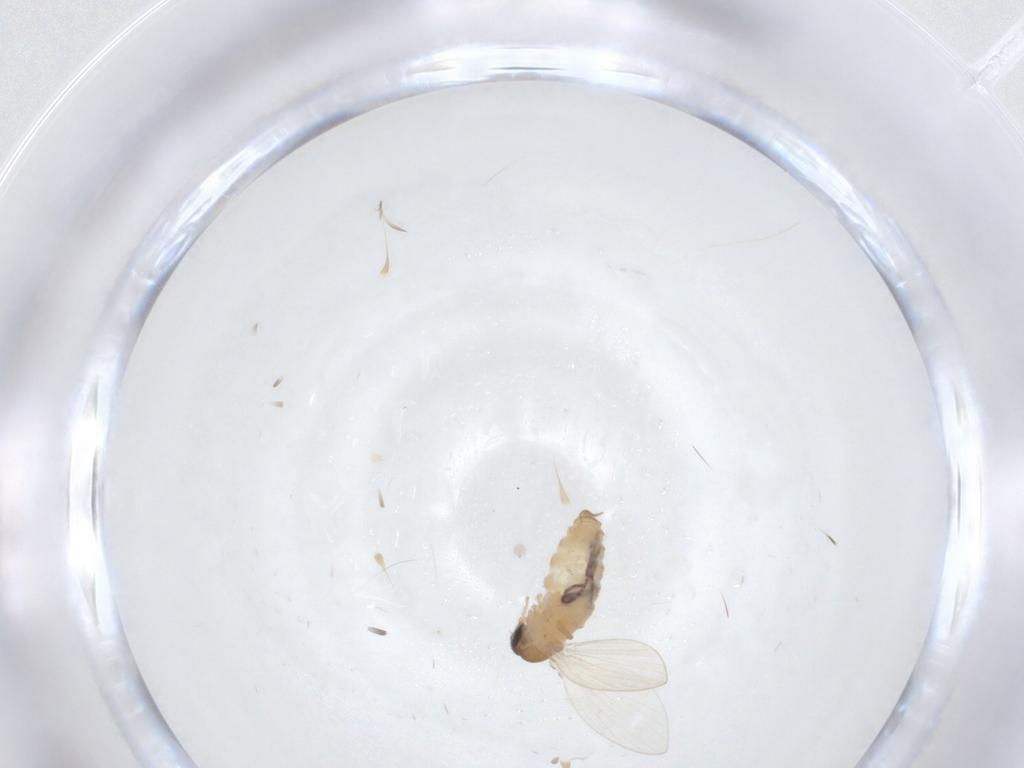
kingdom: Animalia
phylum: Arthropoda
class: Insecta
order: Diptera
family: Psychodidae
